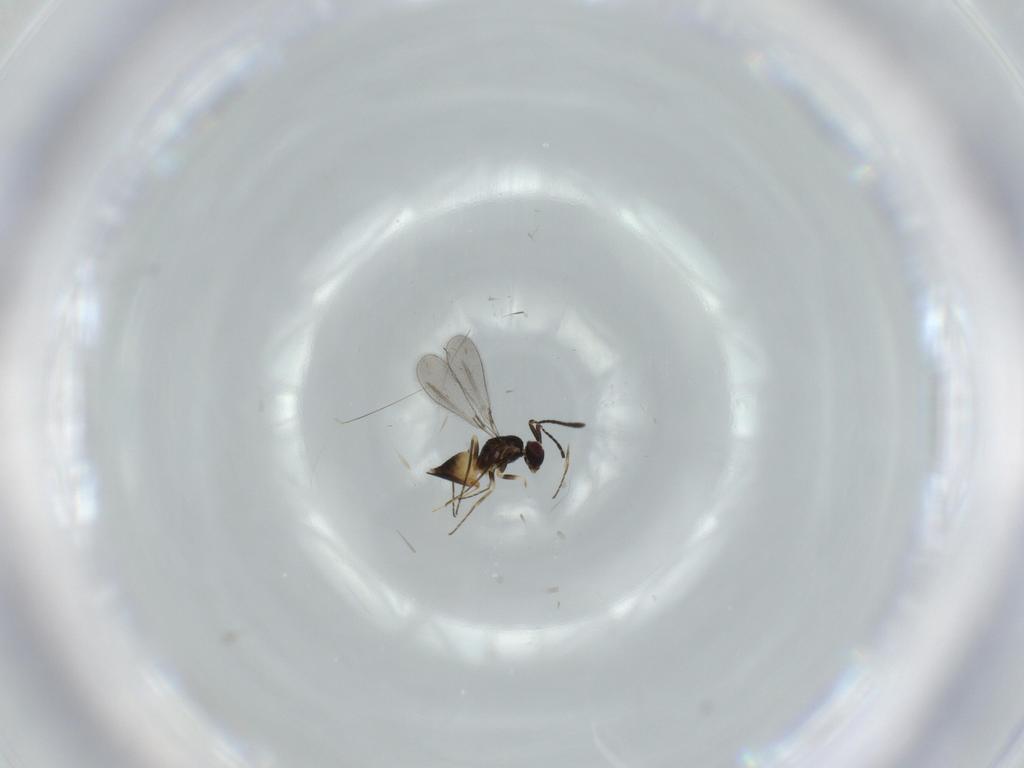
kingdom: Animalia
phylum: Arthropoda
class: Insecta
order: Hymenoptera
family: Mymaridae
